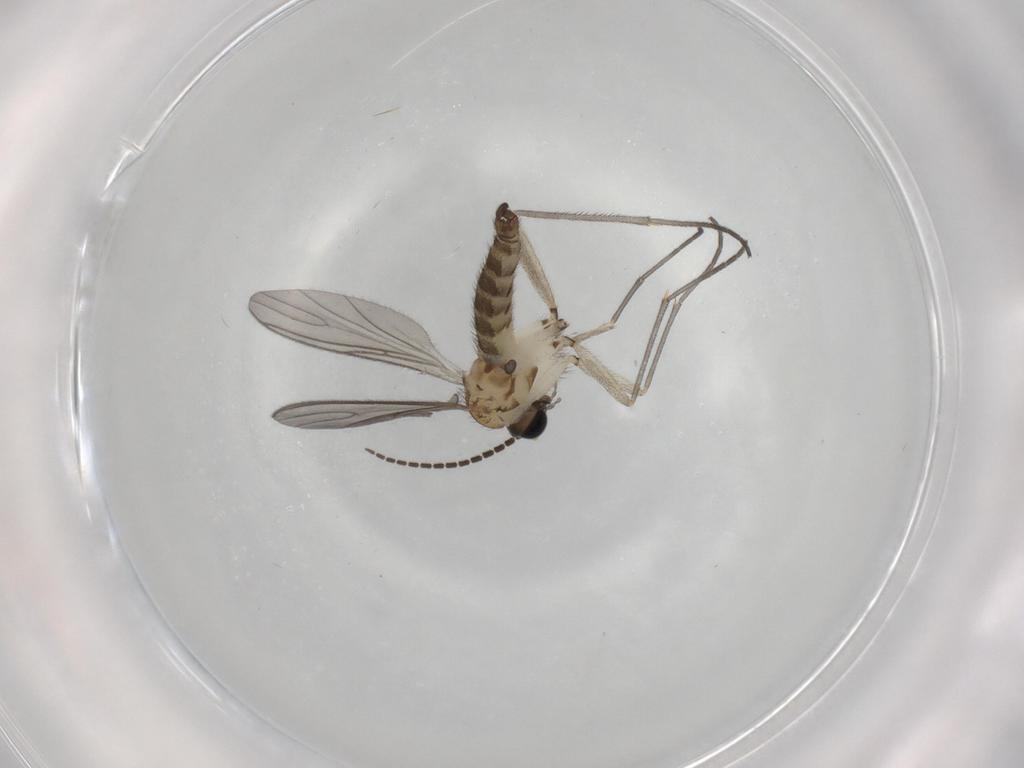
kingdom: Animalia
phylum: Arthropoda
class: Insecta
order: Diptera
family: Sciaridae
